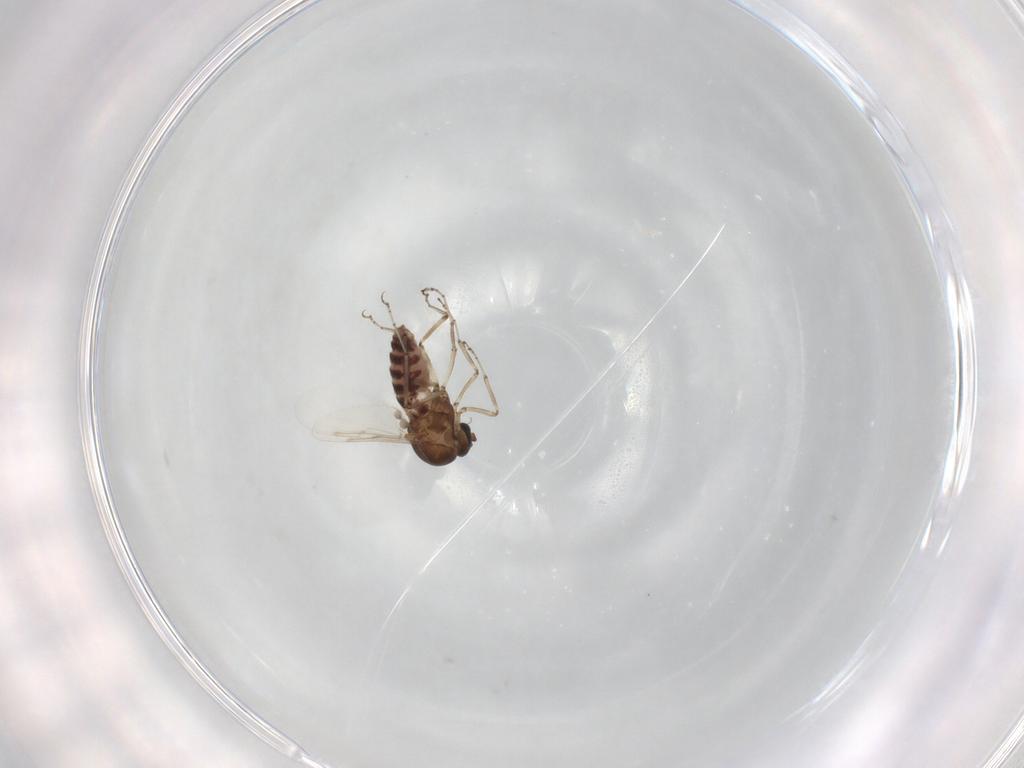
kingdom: Animalia
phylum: Arthropoda
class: Insecta
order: Diptera
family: Ceratopogonidae
